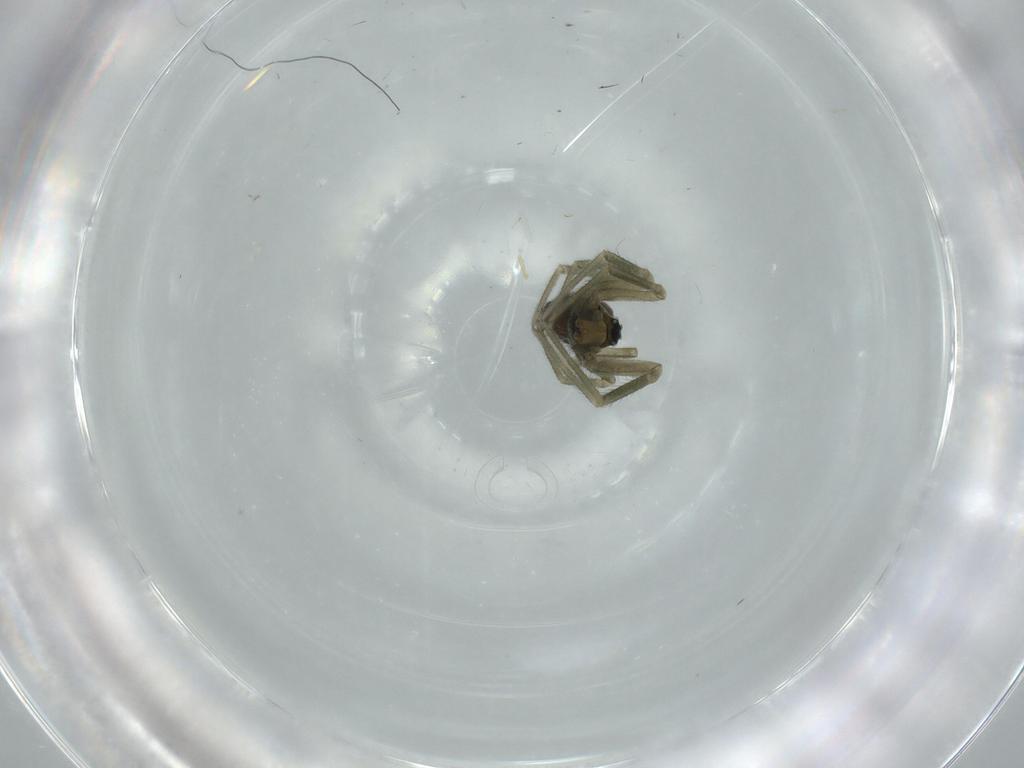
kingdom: Animalia
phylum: Arthropoda
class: Arachnida
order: Araneae
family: Linyphiidae
